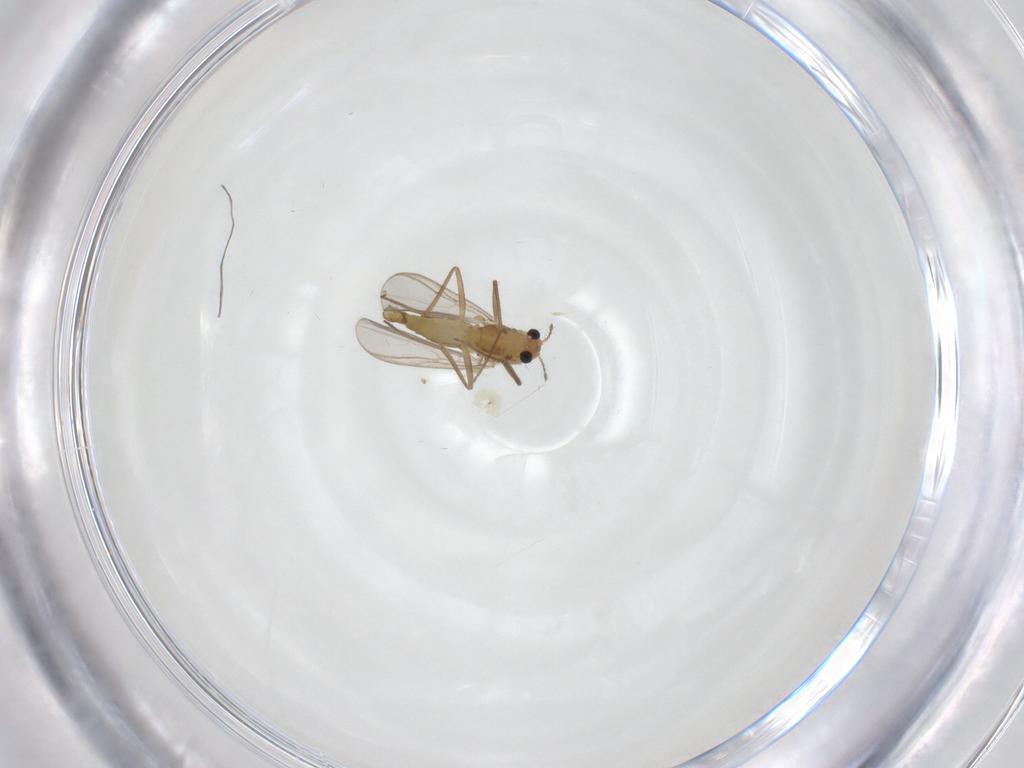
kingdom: Animalia
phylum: Arthropoda
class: Insecta
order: Diptera
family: Chironomidae
